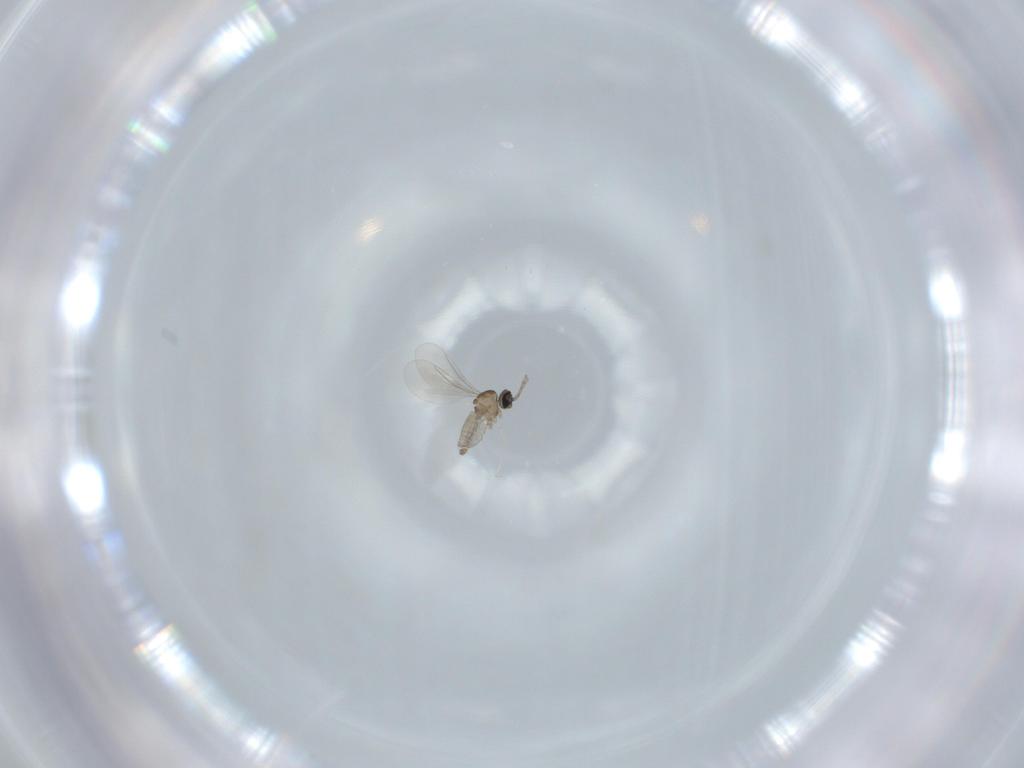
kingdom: Animalia
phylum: Arthropoda
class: Insecta
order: Diptera
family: Cecidomyiidae
